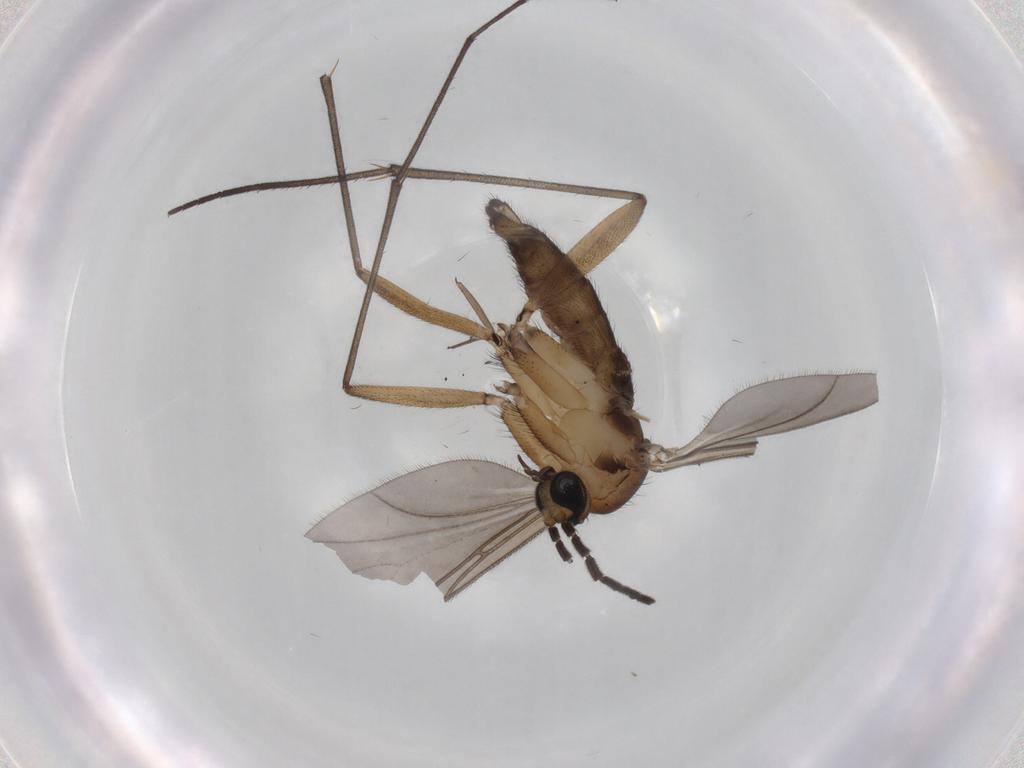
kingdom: Animalia
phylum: Arthropoda
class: Insecta
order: Diptera
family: Sciaridae
